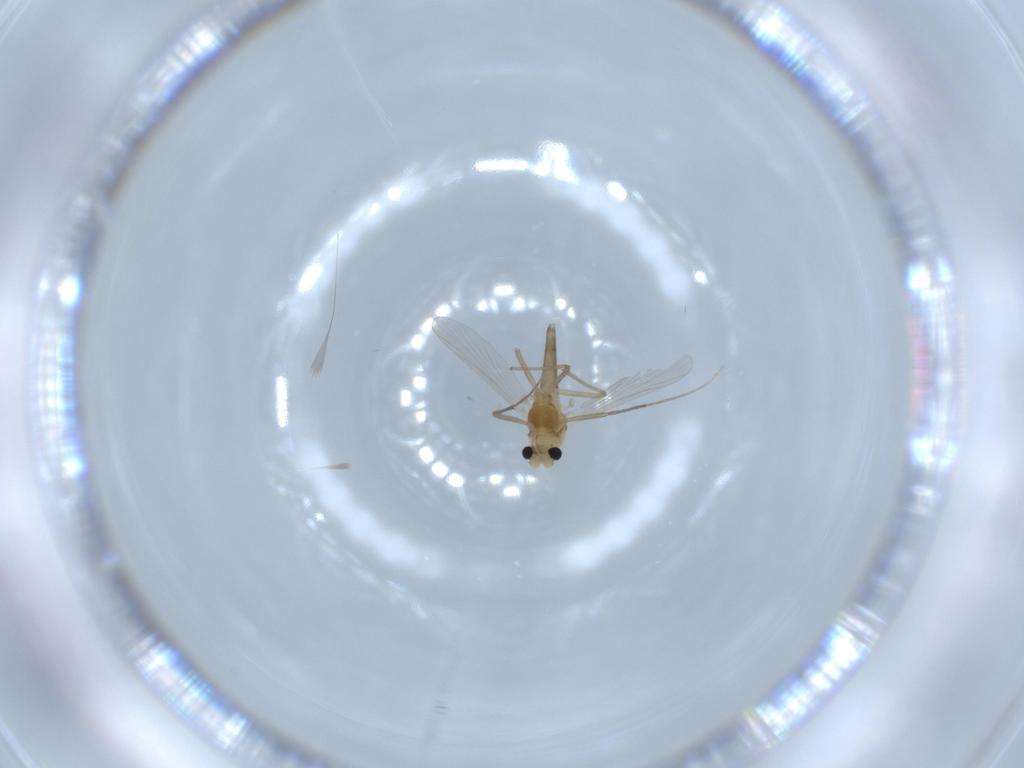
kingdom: Animalia
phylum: Arthropoda
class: Insecta
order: Diptera
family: Chironomidae
